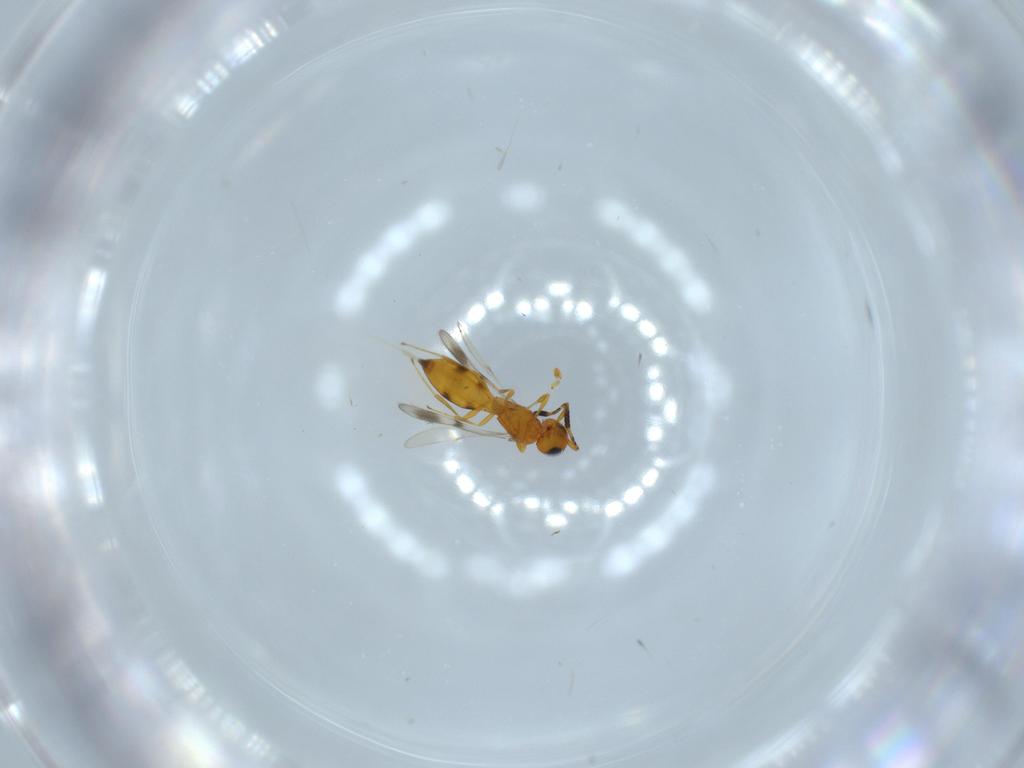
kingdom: Animalia
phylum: Arthropoda
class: Insecta
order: Hymenoptera
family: Scelionidae
